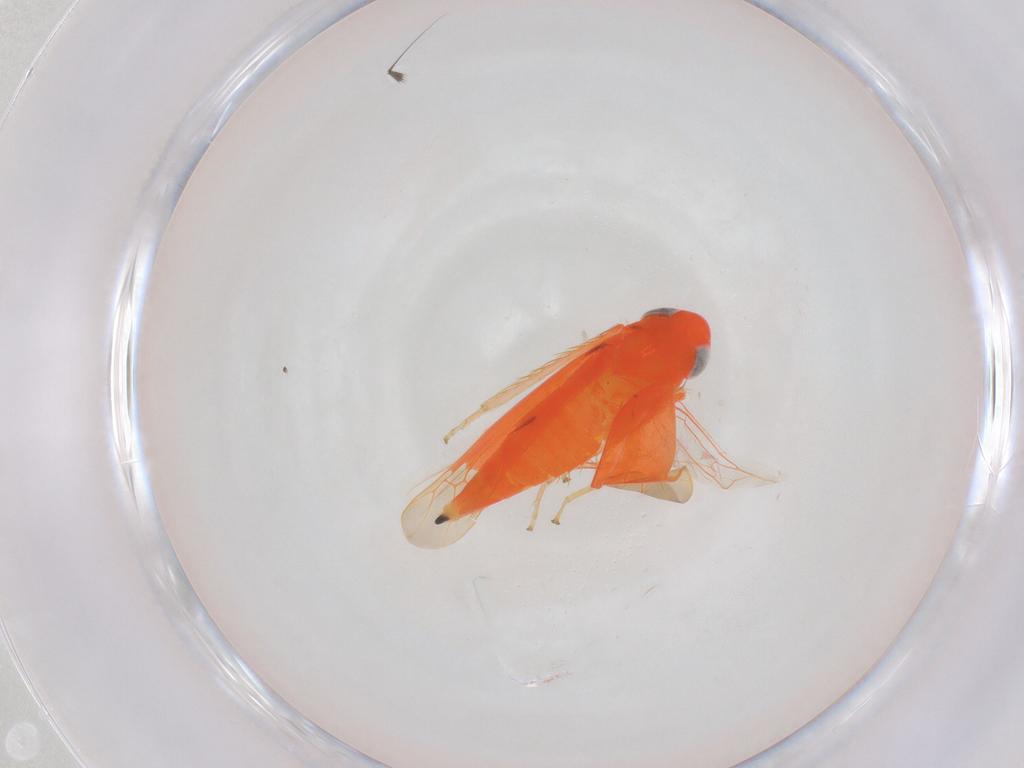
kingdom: Animalia
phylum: Arthropoda
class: Insecta
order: Hemiptera
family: Cicadellidae
